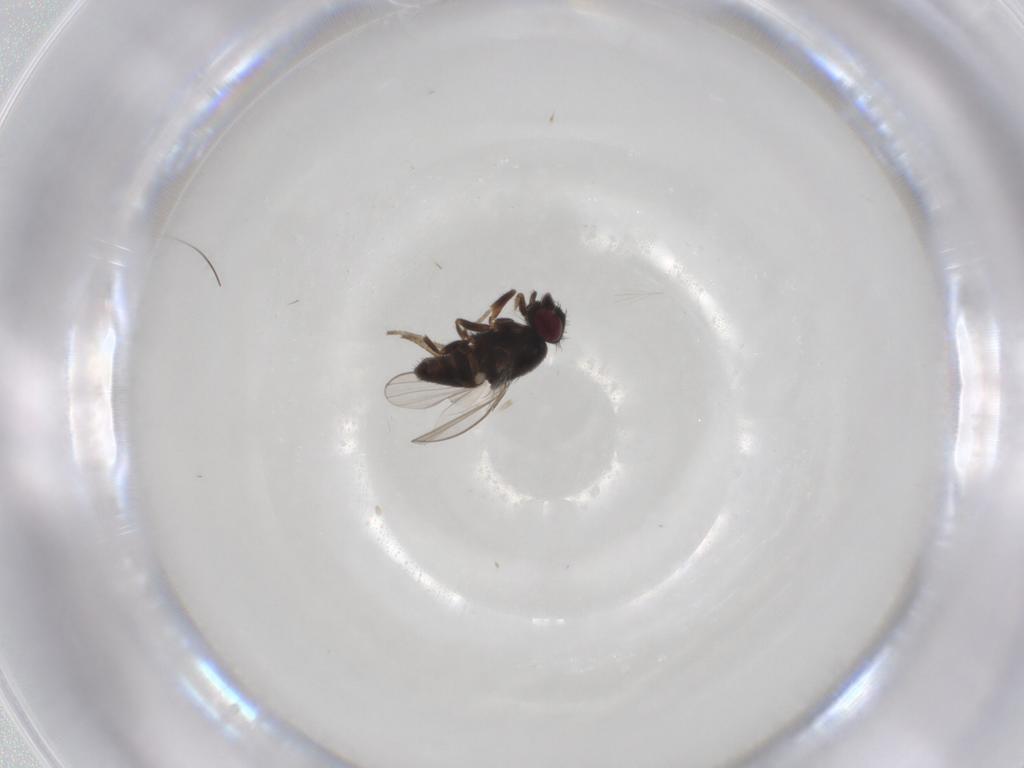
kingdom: Animalia
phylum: Arthropoda
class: Insecta
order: Diptera
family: Milichiidae
